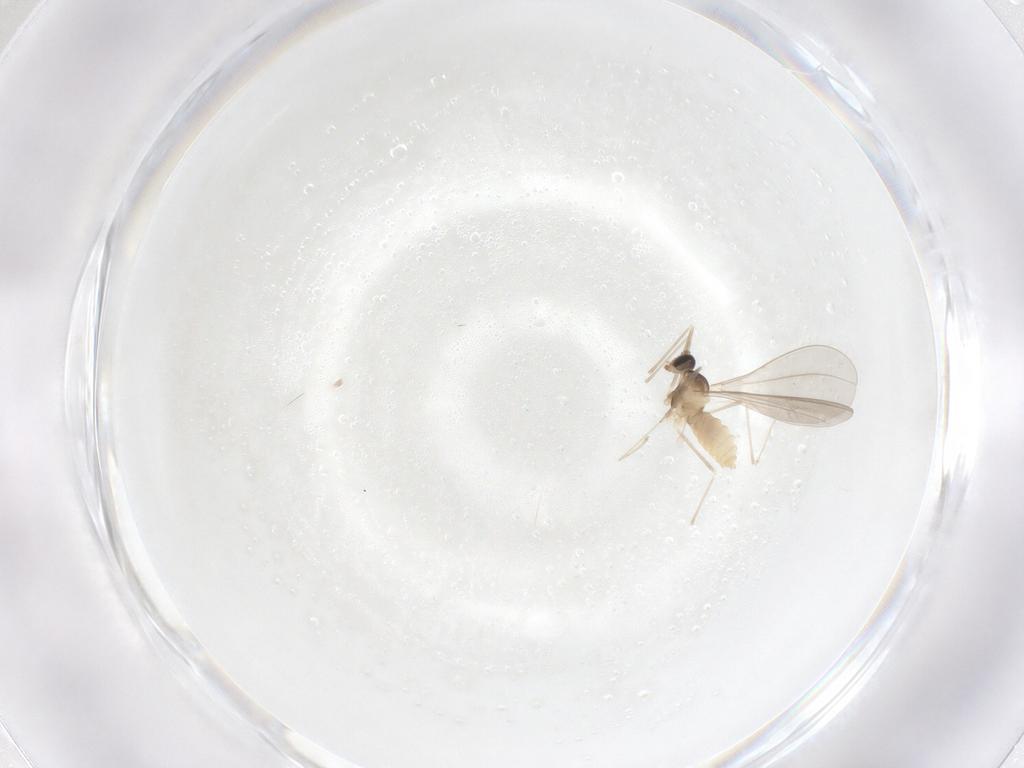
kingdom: Animalia
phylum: Arthropoda
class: Insecta
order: Diptera
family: Cecidomyiidae
